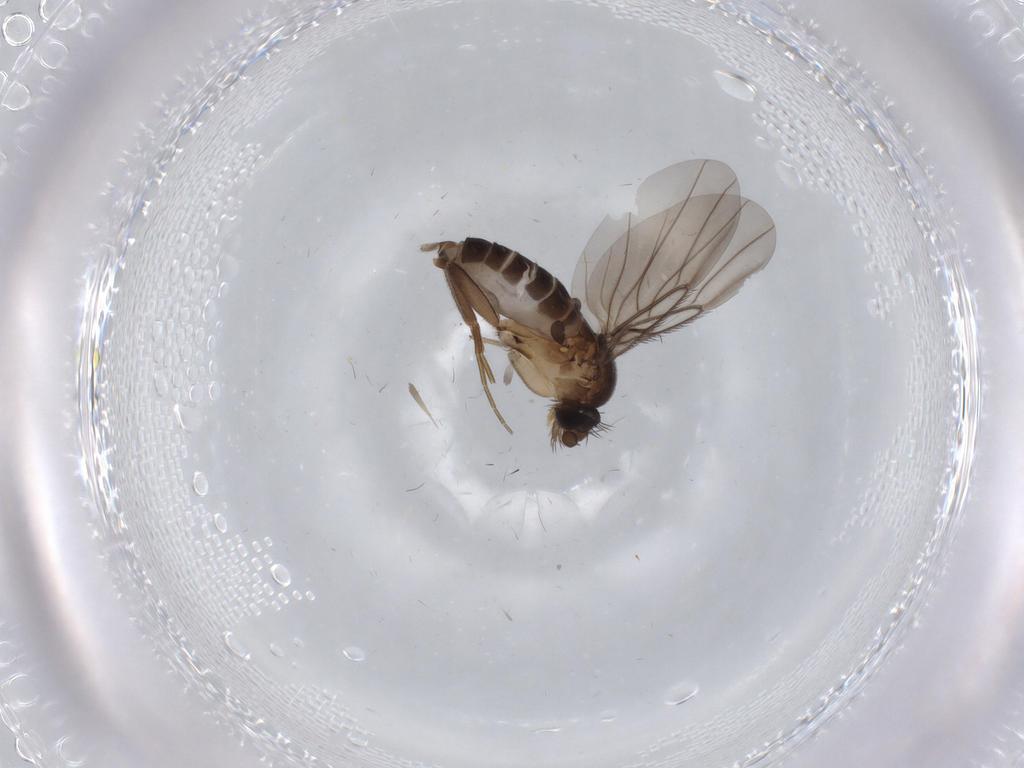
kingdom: Animalia
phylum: Arthropoda
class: Insecta
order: Diptera
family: Phoridae
